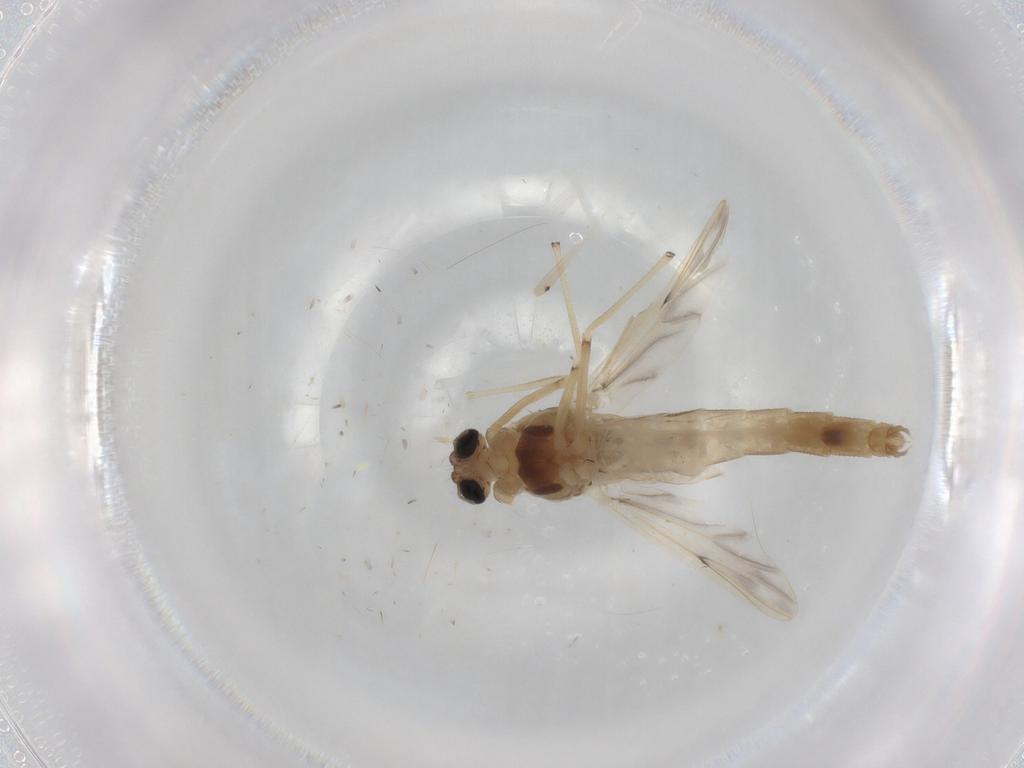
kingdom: Animalia
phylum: Arthropoda
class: Insecta
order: Diptera
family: Chironomidae
